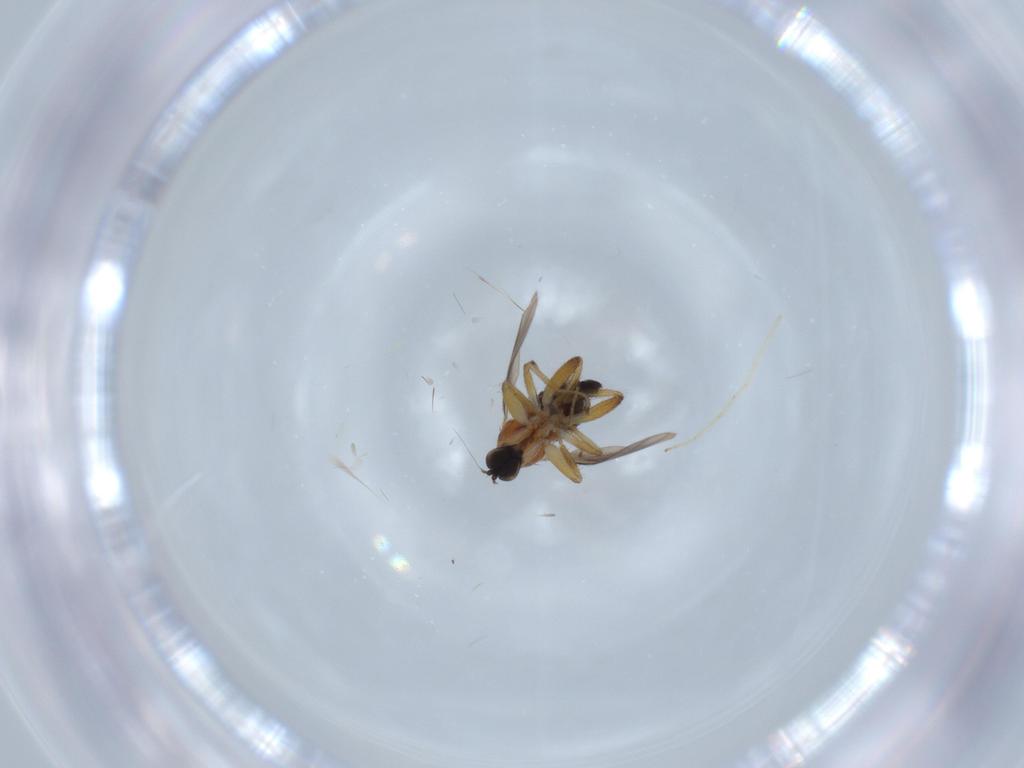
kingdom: Animalia
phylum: Arthropoda
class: Insecta
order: Diptera
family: Hybotidae
